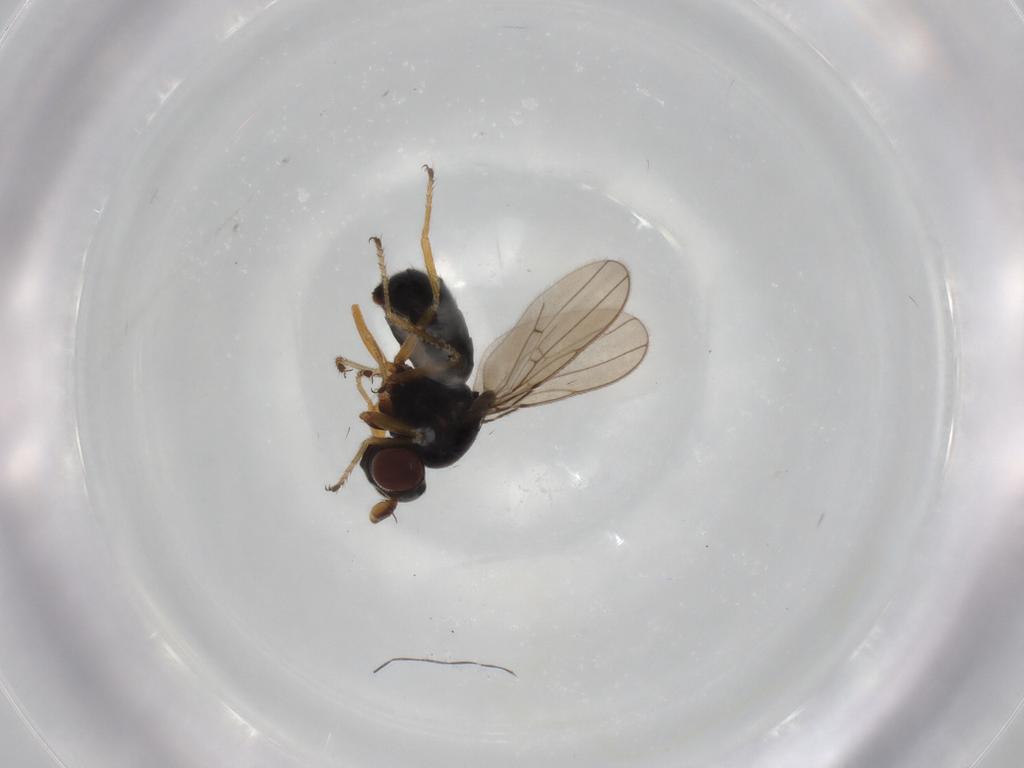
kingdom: Animalia
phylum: Arthropoda
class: Insecta
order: Diptera
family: Ephydridae
